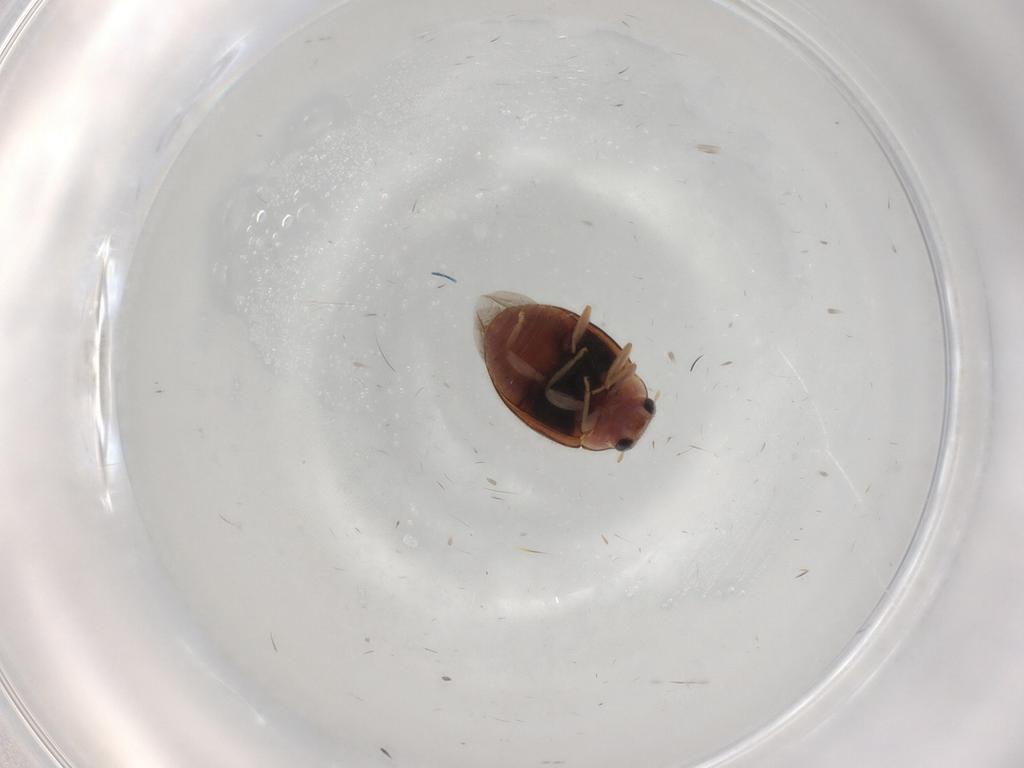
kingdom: Animalia
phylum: Arthropoda
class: Insecta
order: Coleoptera
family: Coccinellidae
